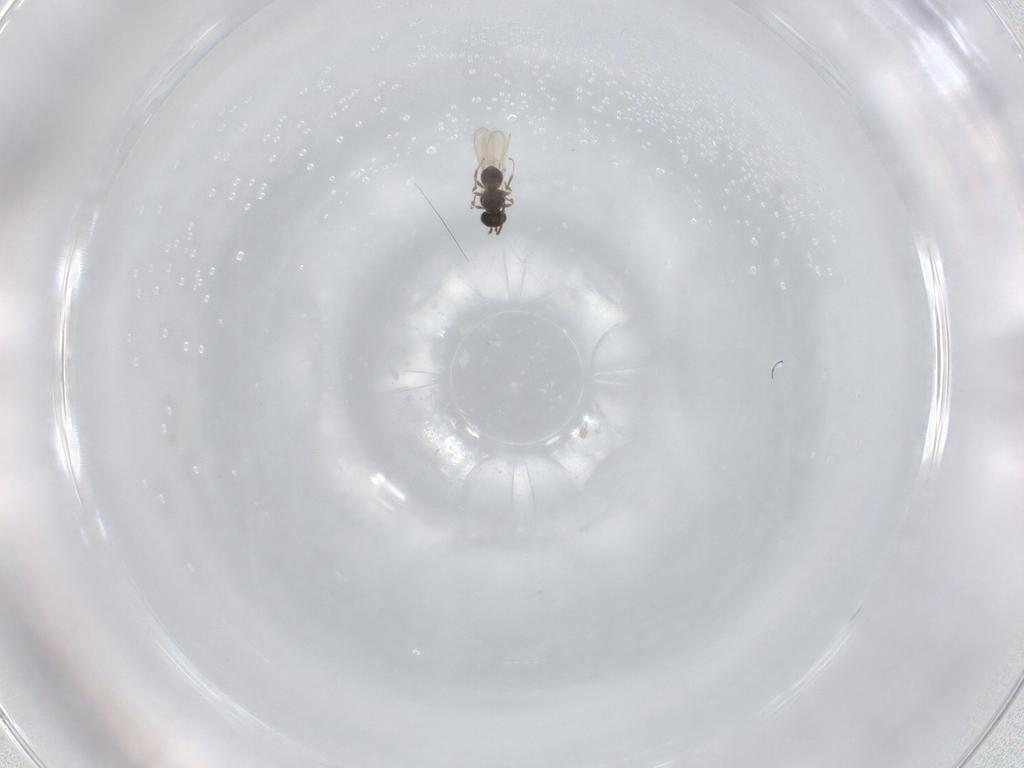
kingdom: Animalia
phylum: Arthropoda
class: Insecta
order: Hymenoptera
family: Scelionidae
